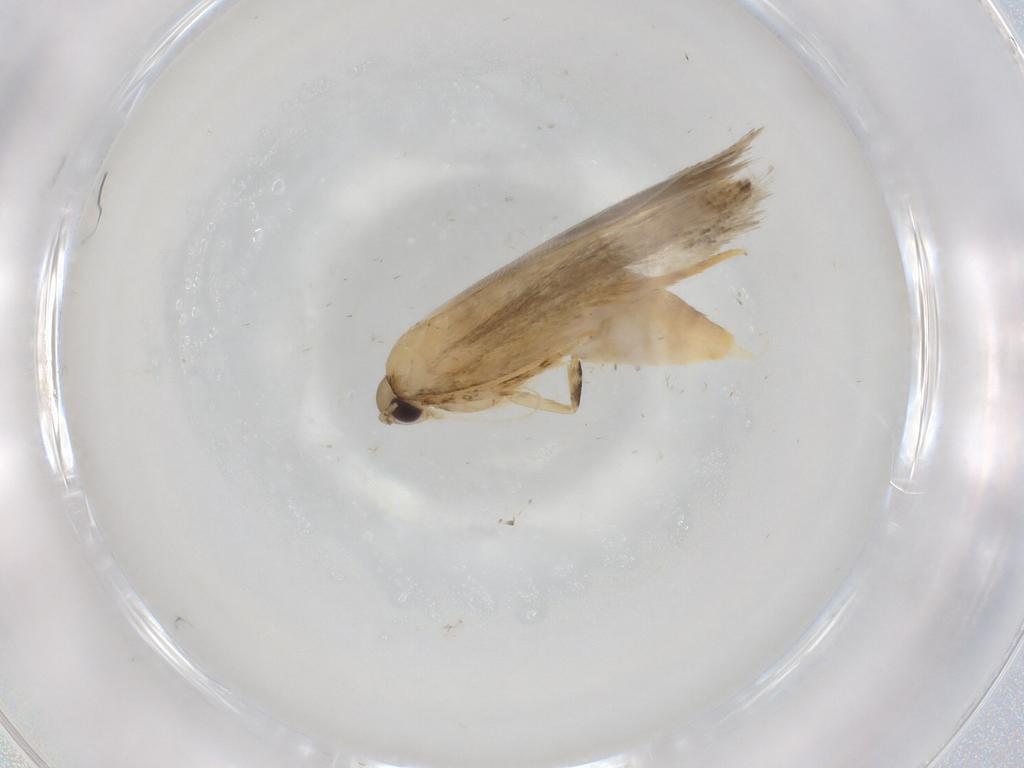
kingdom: Animalia
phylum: Arthropoda
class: Insecta
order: Lepidoptera
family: Autostichidae
